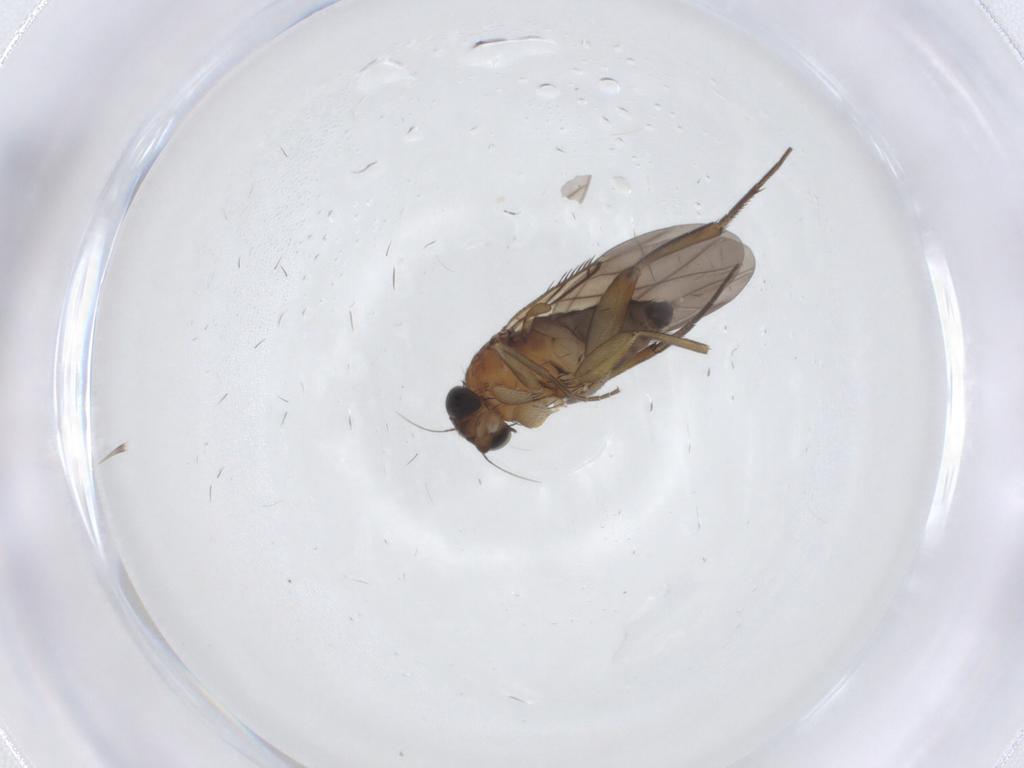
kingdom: Animalia
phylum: Arthropoda
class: Insecta
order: Diptera
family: Phoridae
